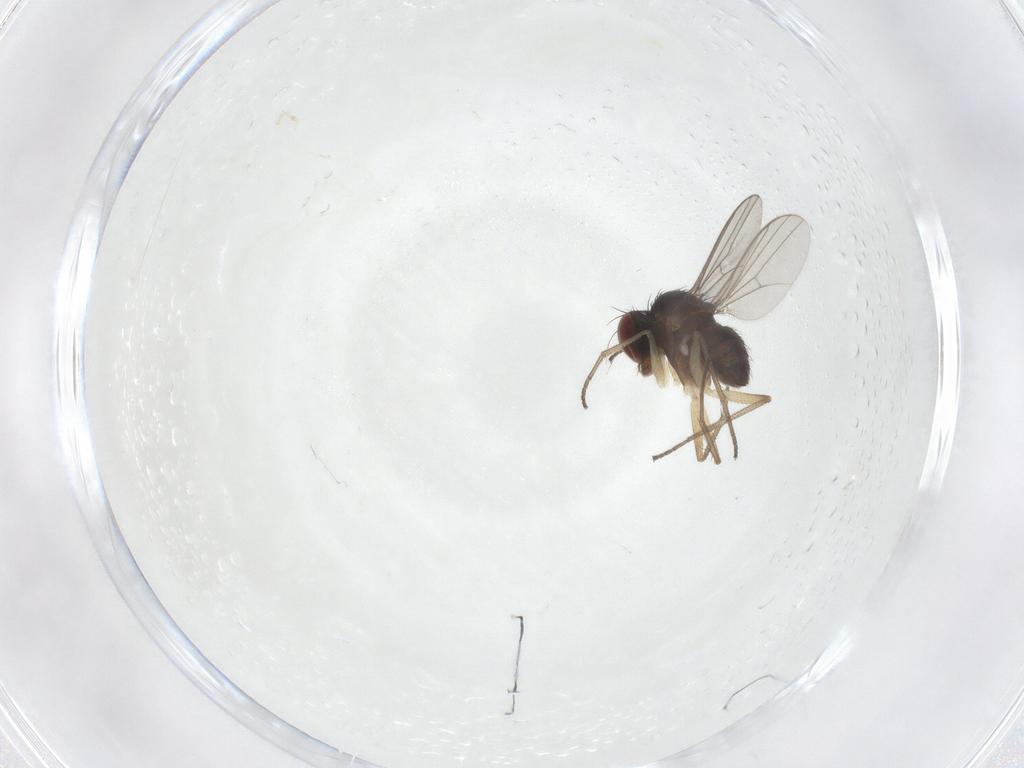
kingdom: Animalia
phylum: Arthropoda
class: Insecta
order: Diptera
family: Dolichopodidae
